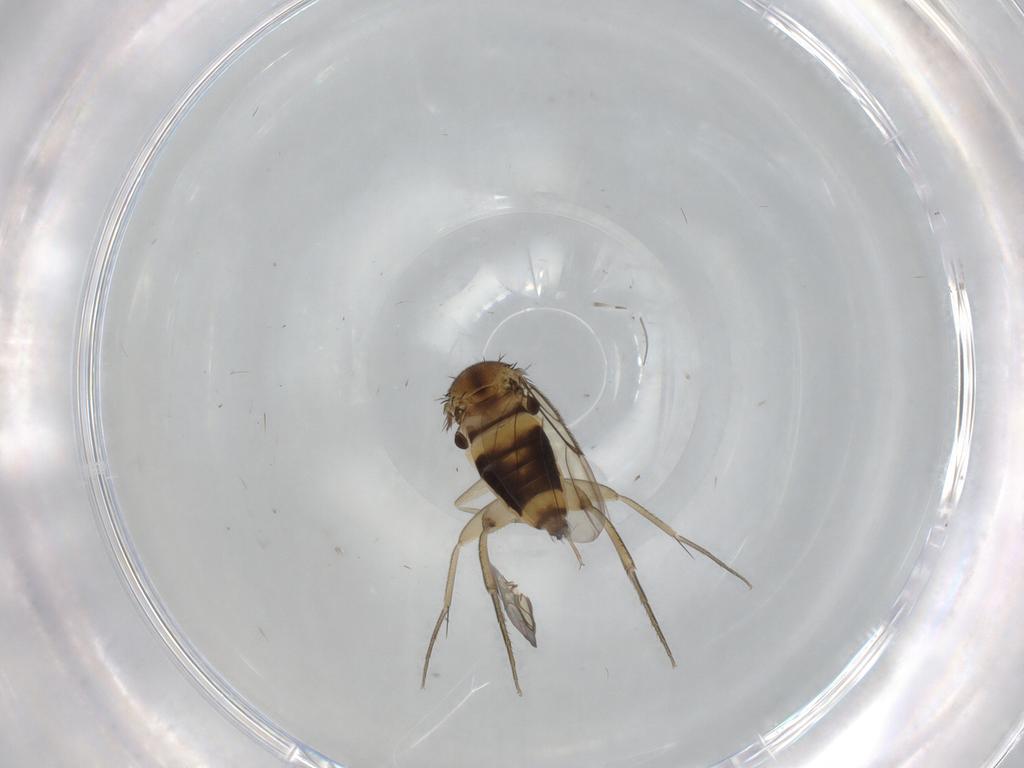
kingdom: Animalia
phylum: Arthropoda
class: Insecta
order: Diptera
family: Phoridae
